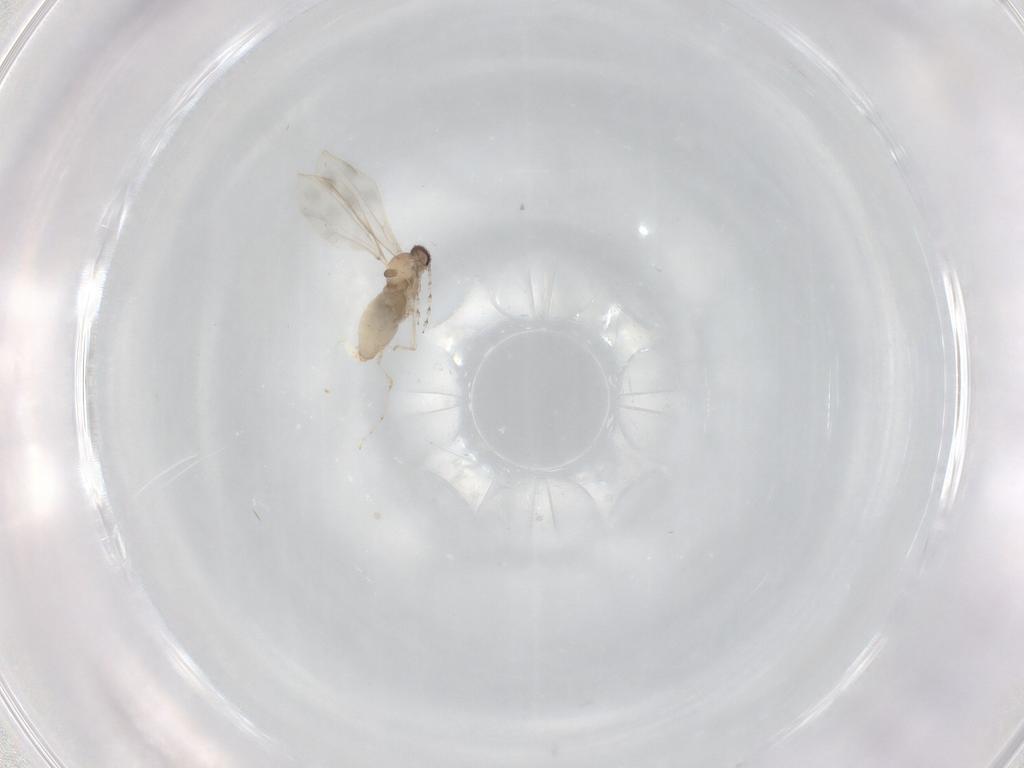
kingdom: Animalia
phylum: Arthropoda
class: Insecta
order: Diptera
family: Cecidomyiidae
